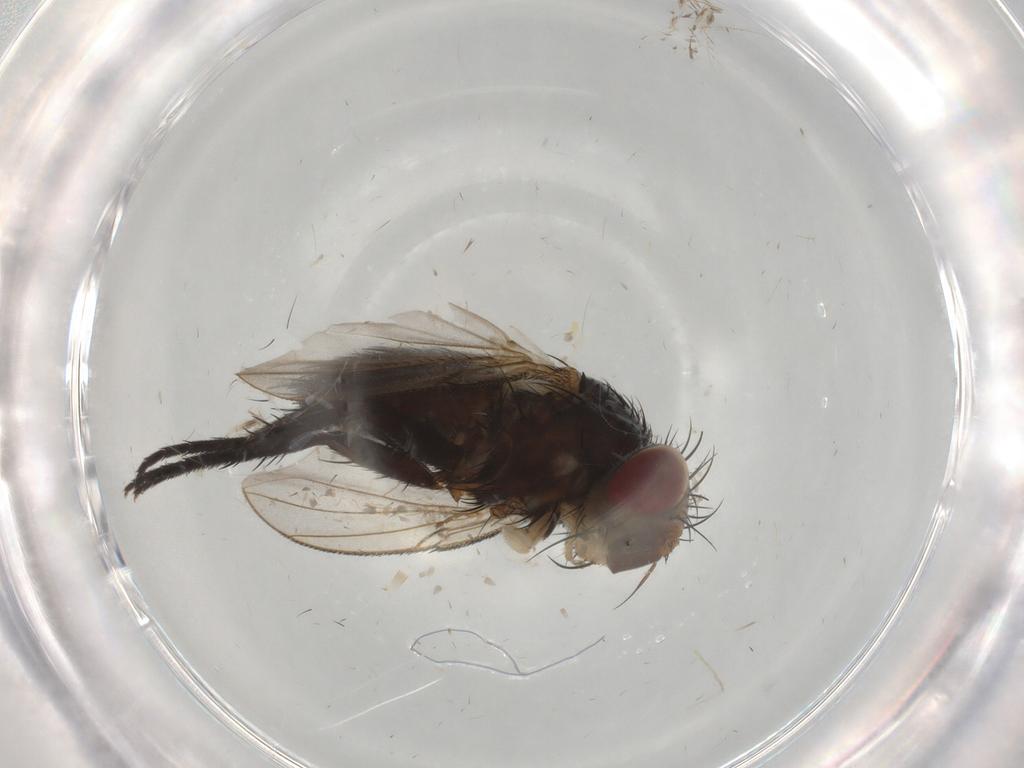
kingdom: Animalia
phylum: Arthropoda
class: Insecta
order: Diptera
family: Tachinidae
